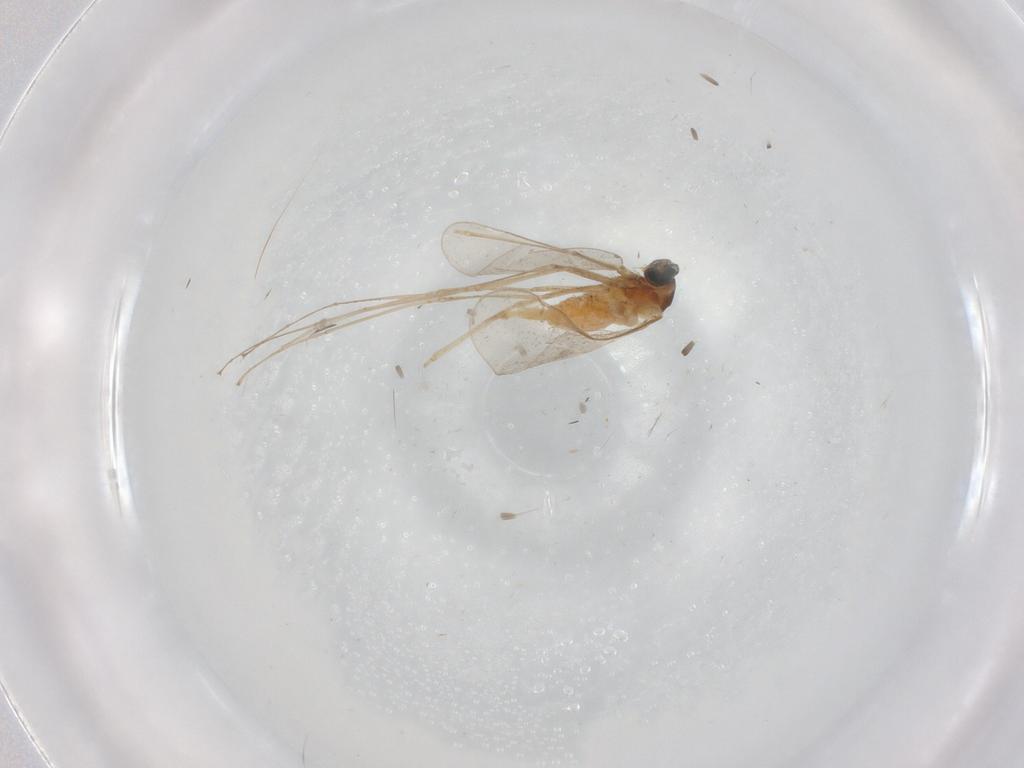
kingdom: Animalia
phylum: Arthropoda
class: Insecta
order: Diptera
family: Cecidomyiidae
